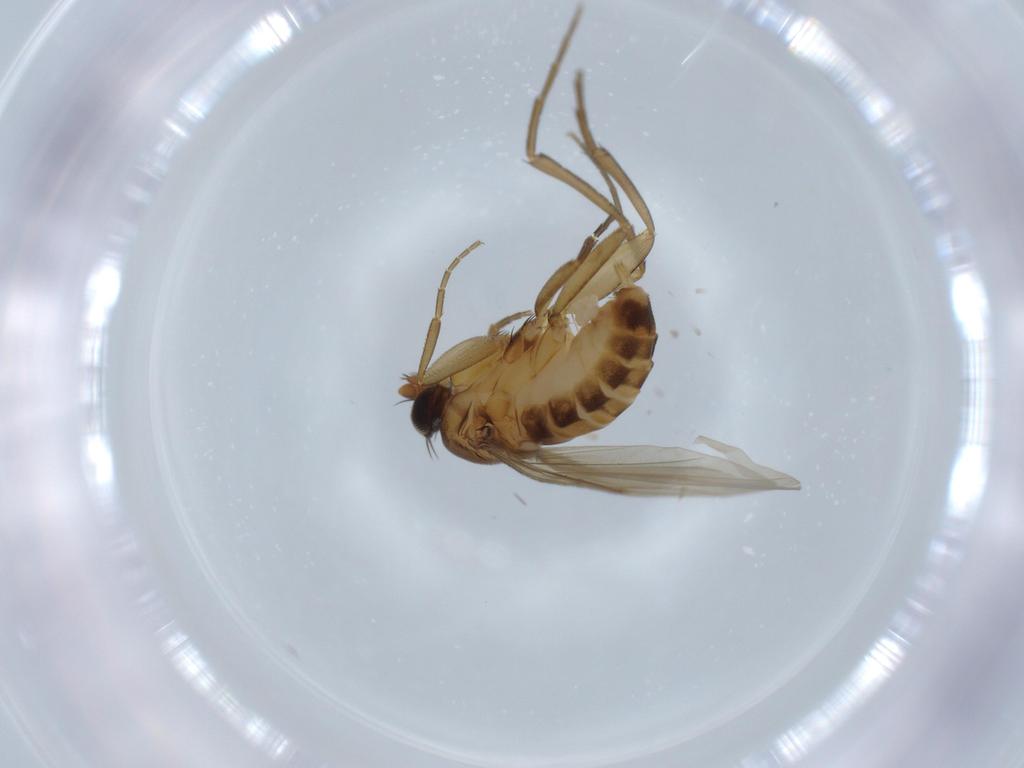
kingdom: Animalia
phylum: Arthropoda
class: Insecta
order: Diptera
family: Phoridae
